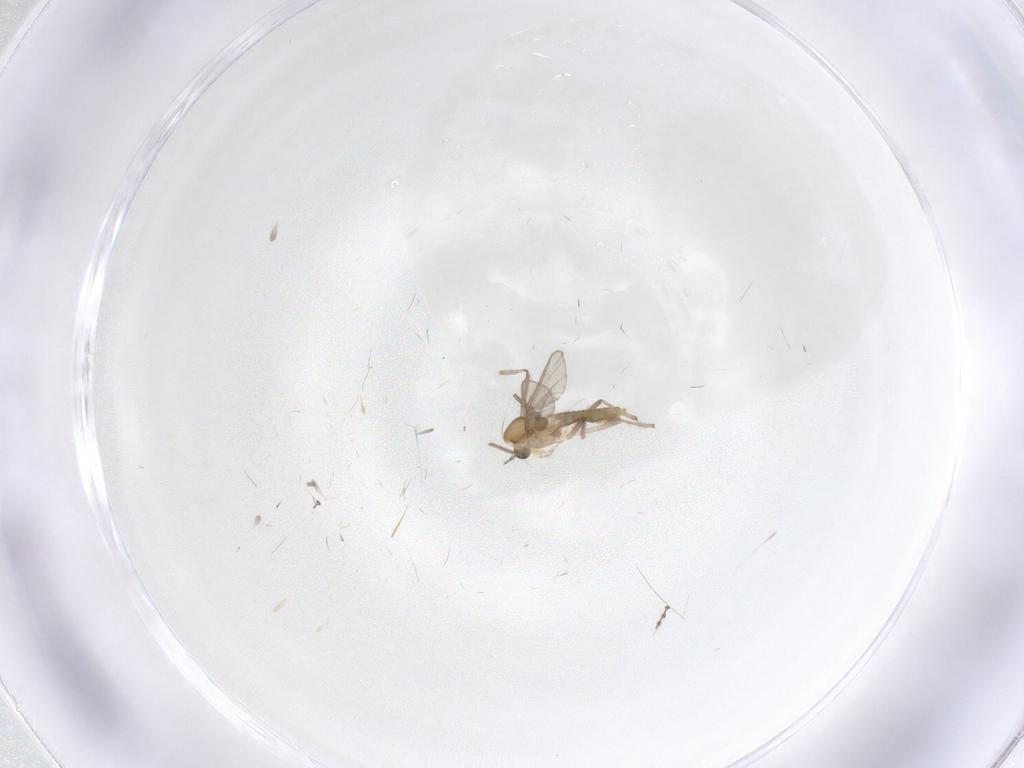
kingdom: Animalia
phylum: Arthropoda
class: Insecta
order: Diptera
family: Chironomidae
